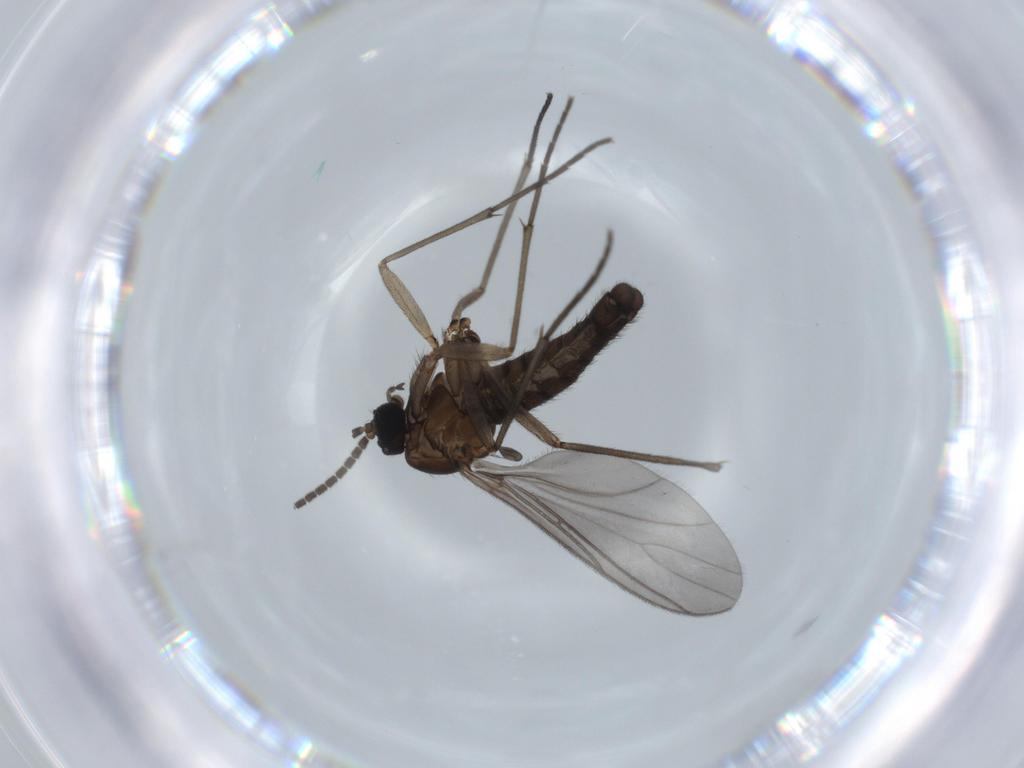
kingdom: Animalia
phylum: Arthropoda
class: Insecta
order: Diptera
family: Sciaridae
